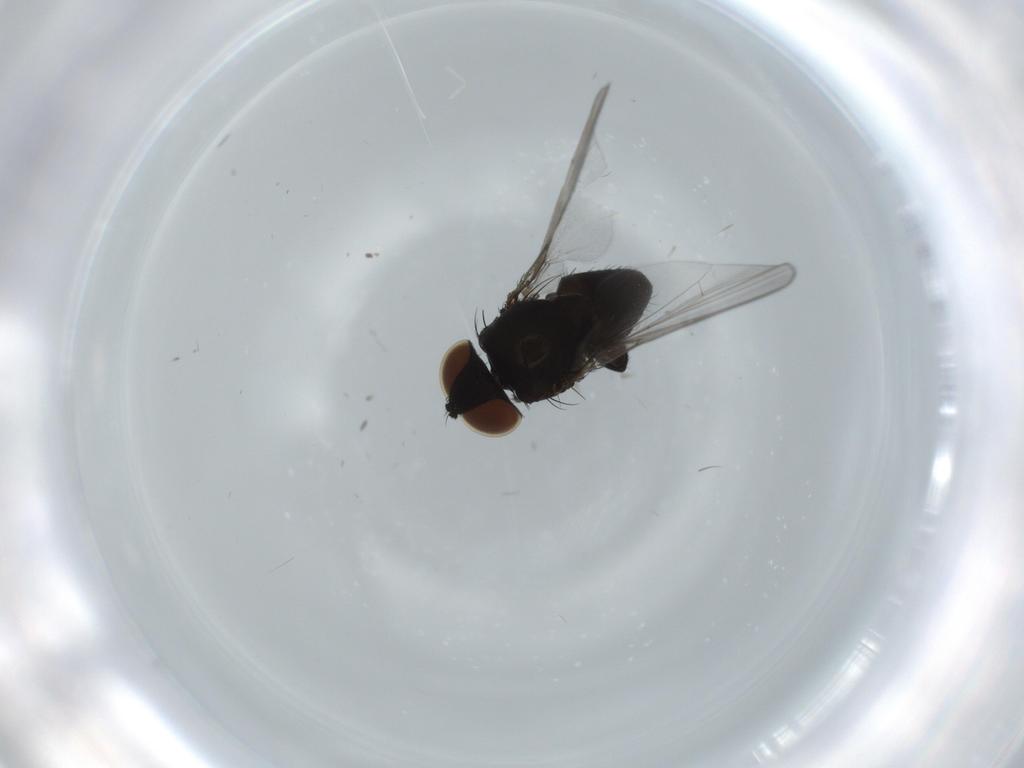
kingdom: Animalia
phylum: Arthropoda
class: Insecta
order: Diptera
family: Milichiidae
